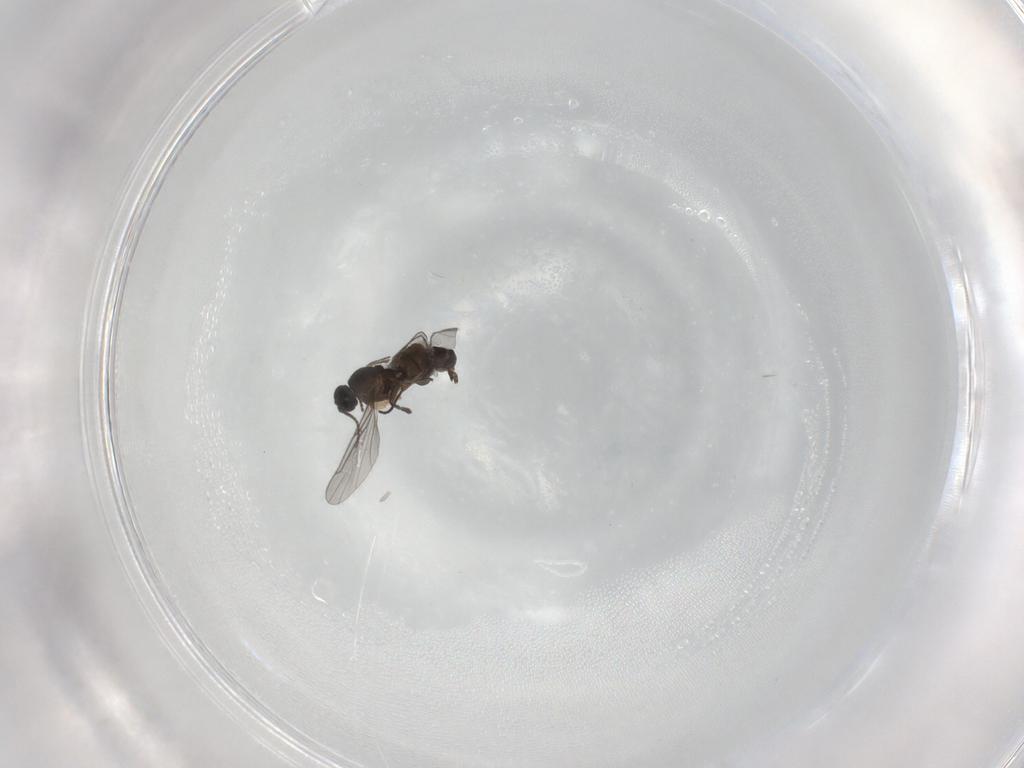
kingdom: Animalia
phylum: Arthropoda
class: Insecta
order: Diptera
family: Sciaridae
